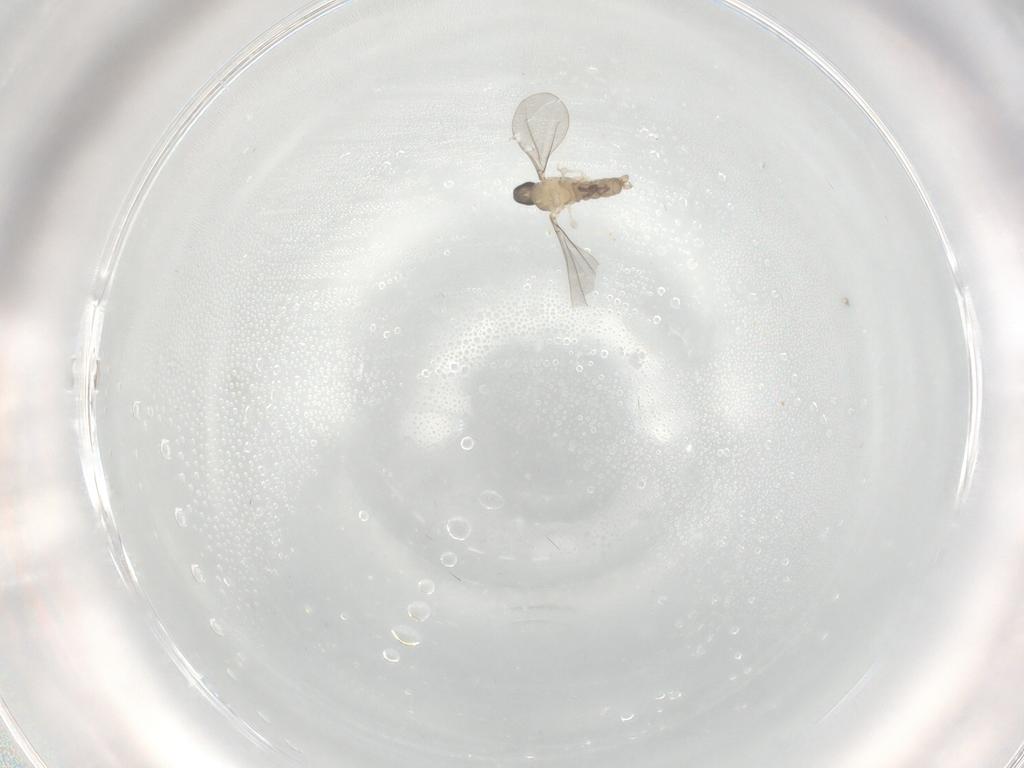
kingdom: Animalia
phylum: Arthropoda
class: Insecta
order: Diptera
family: Cecidomyiidae
